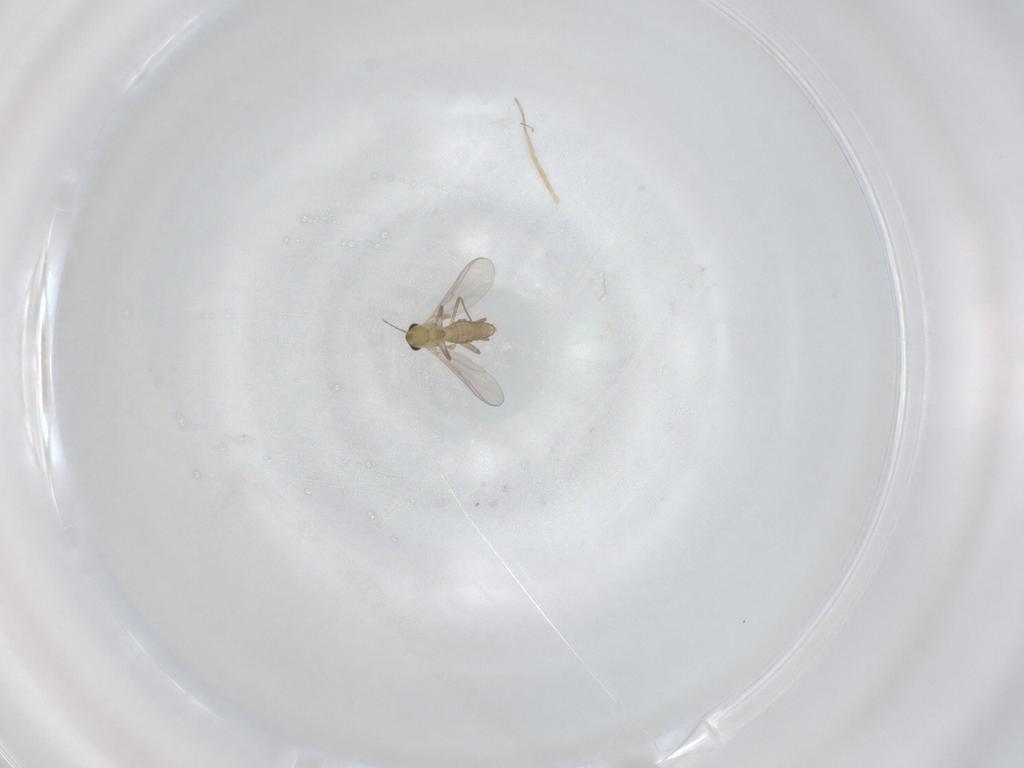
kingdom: Animalia
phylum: Arthropoda
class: Insecta
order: Diptera
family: Chironomidae
